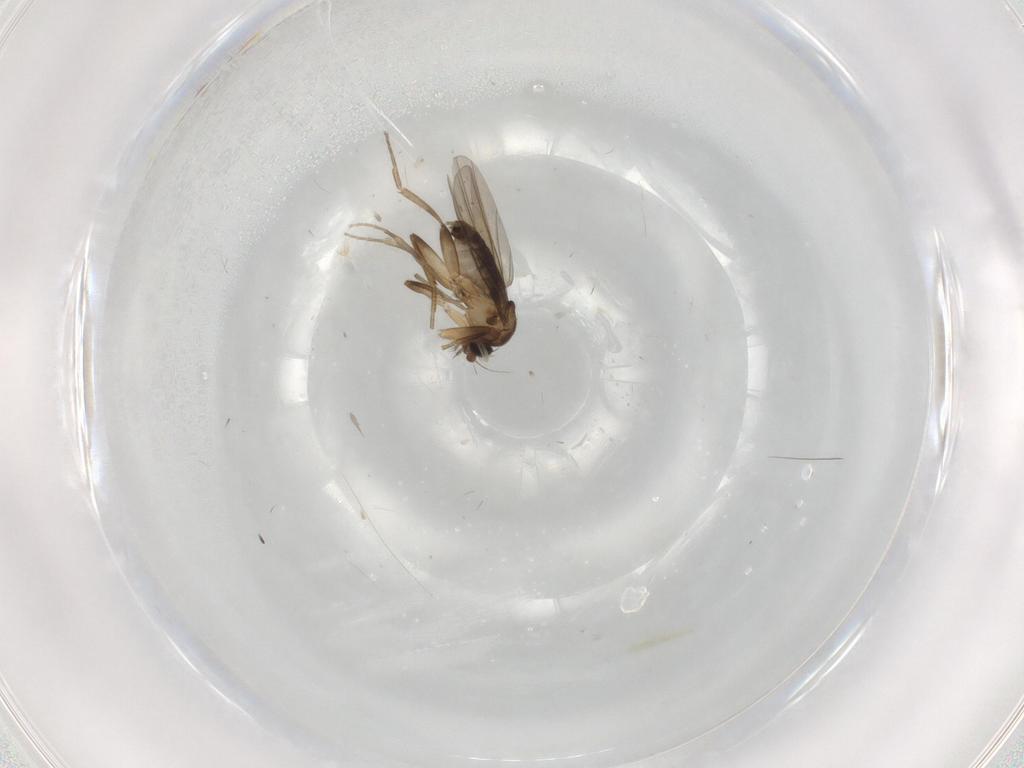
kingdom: Animalia
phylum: Arthropoda
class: Insecta
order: Diptera
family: Phoridae
